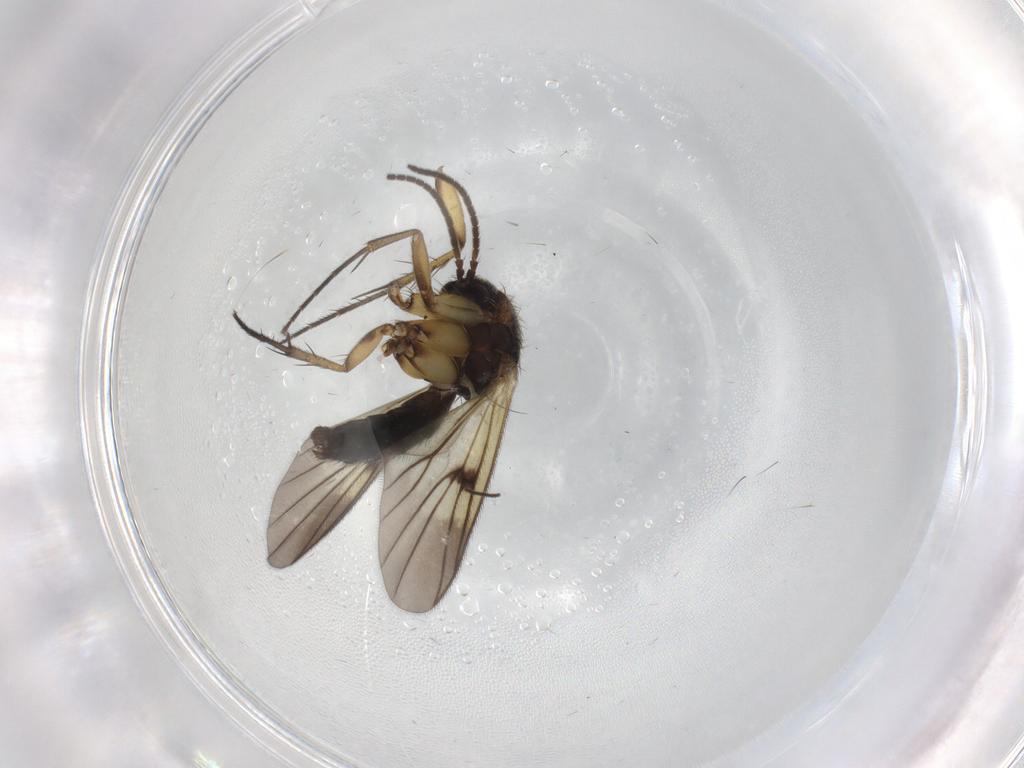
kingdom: Animalia
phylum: Arthropoda
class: Insecta
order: Diptera
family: Mycetophilidae
